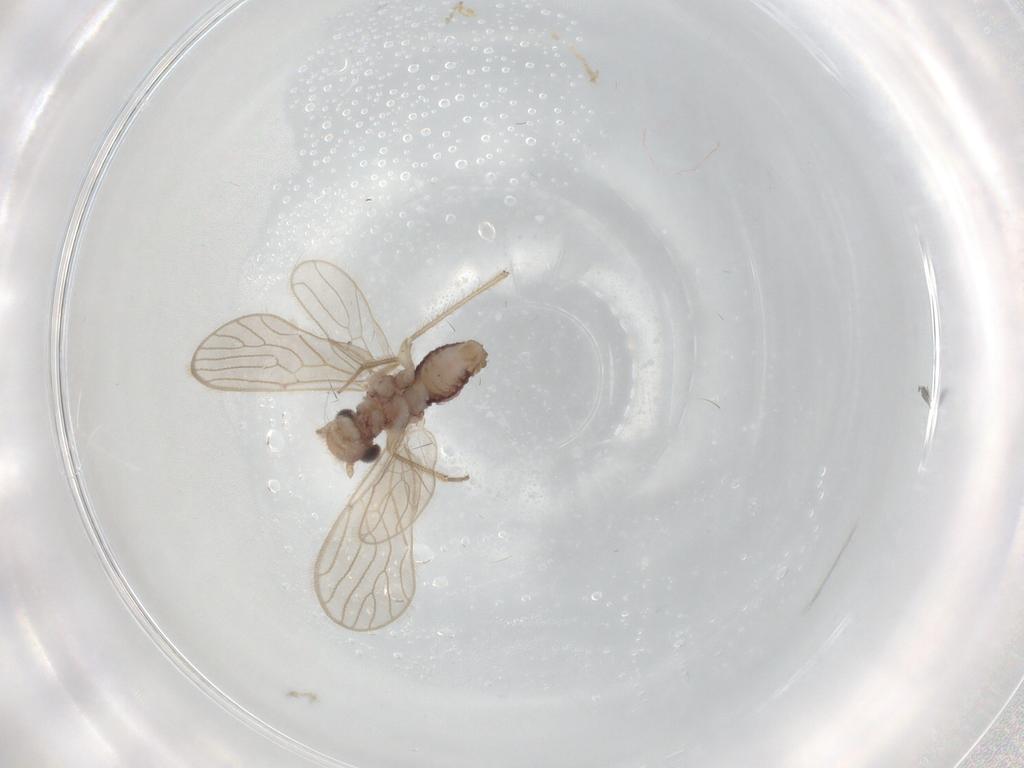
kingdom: Animalia
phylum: Arthropoda
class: Insecta
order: Psocodea
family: Dolabellopsocidae
